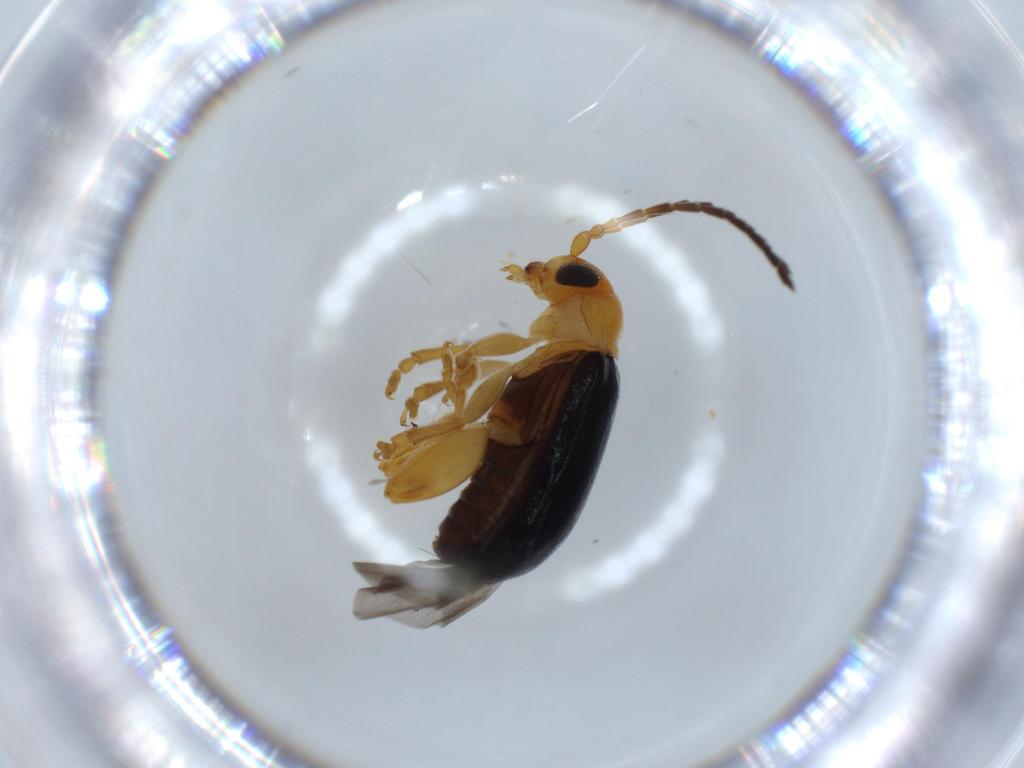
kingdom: Animalia
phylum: Arthropoda
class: Insecta
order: Coleoptera
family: Chrysomelidae
